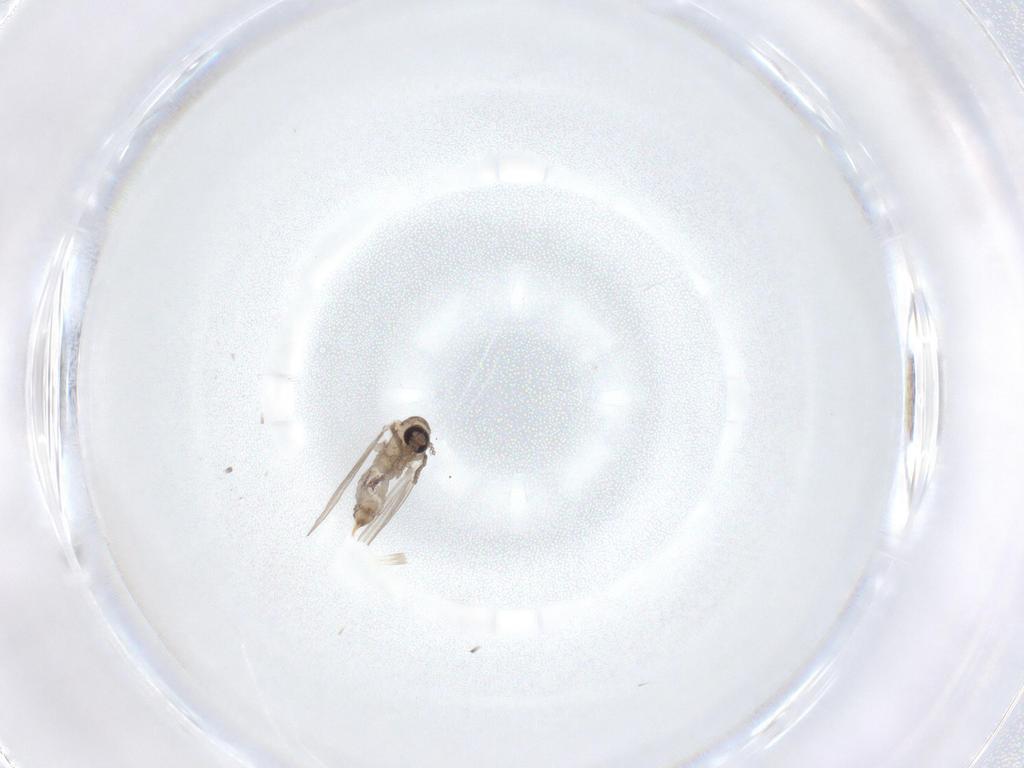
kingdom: Animalia
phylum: Arthropoda
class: Insecta
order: Diptera
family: Psychodidae
